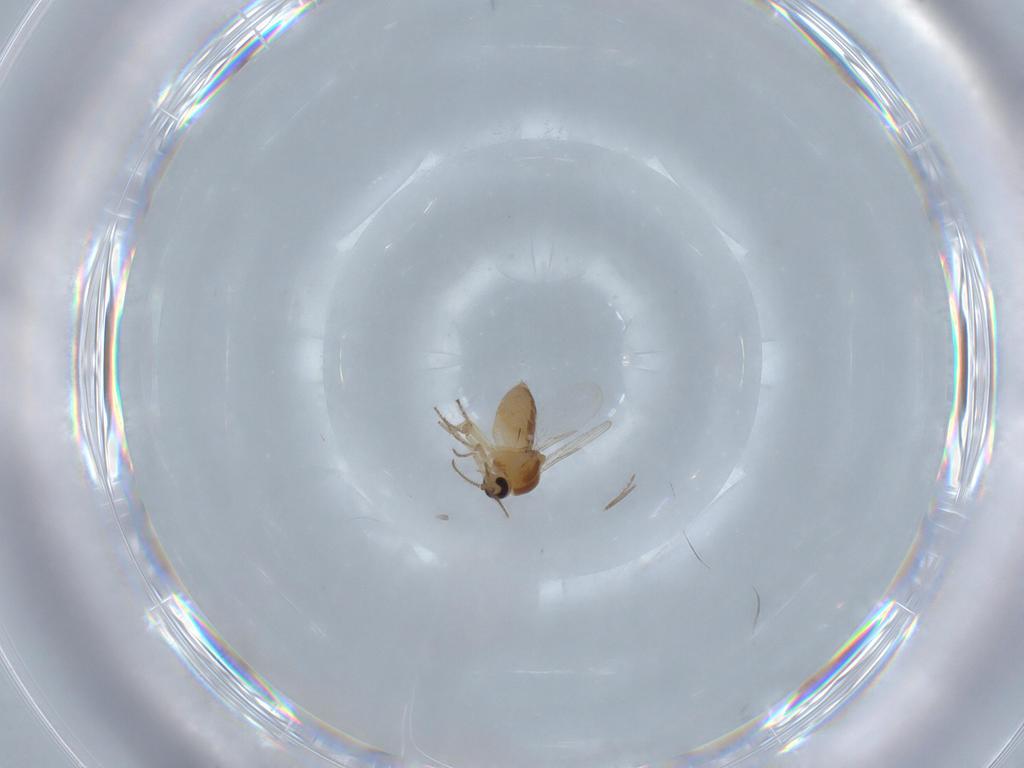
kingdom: Animalia
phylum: Arthropoda
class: Insecta
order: Diptera
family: Ceratopogonidae
